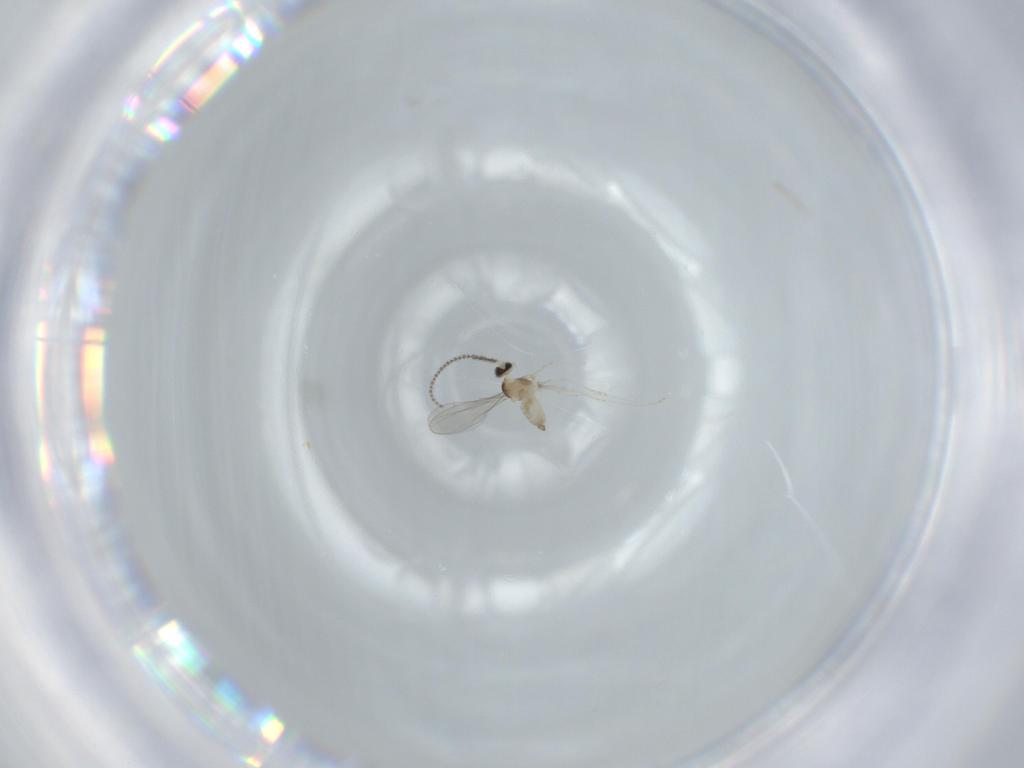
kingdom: Animalia
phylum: Arthropoda
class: Insecta
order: Diptera
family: Cecidomyiidae
